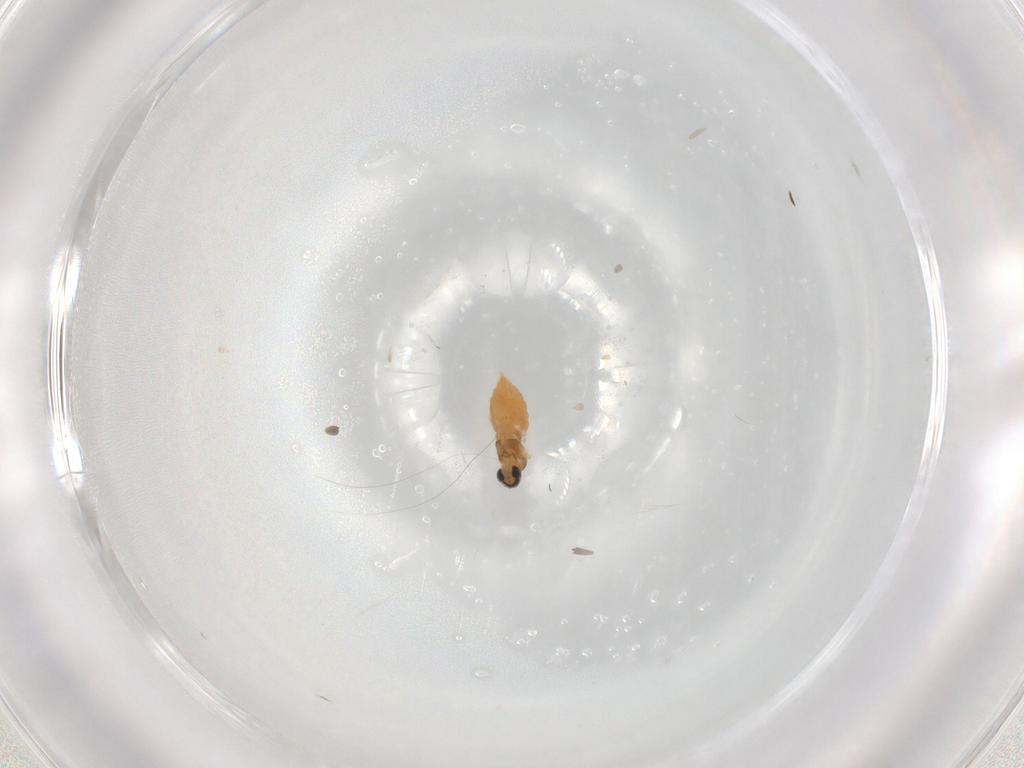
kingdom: Animalia
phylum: Arthropoda
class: Insecta
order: Diptera
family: Cecidomyiidae
